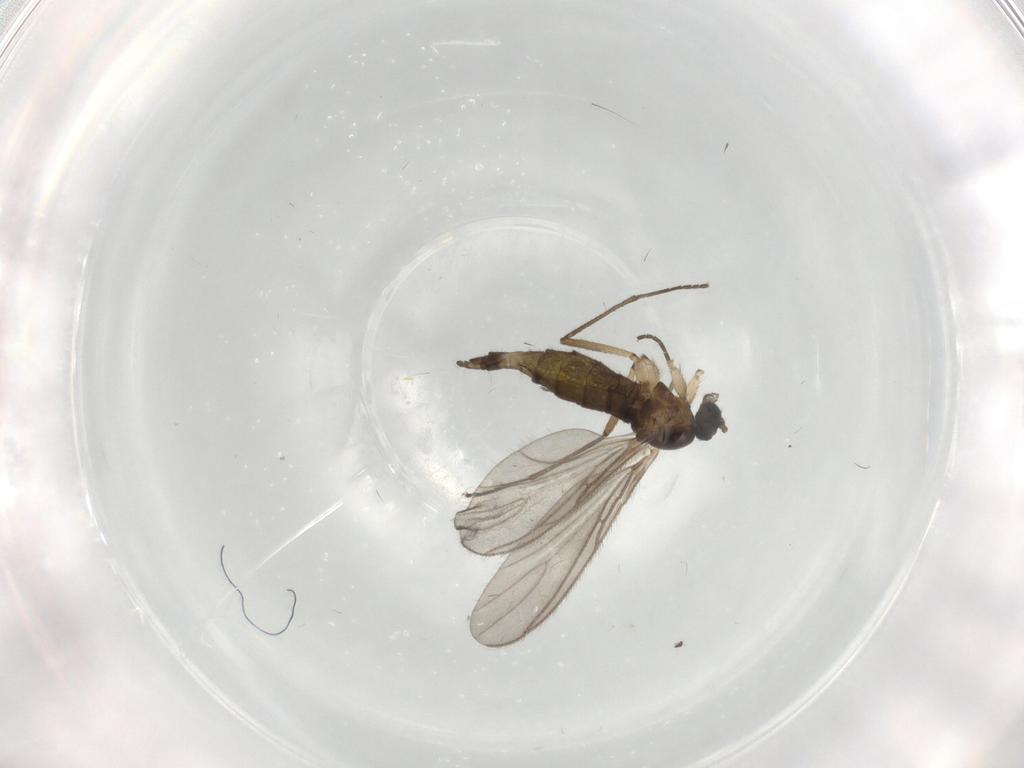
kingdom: Animalia
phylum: Arthropoda
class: Insecta
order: Diptera
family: Sciaridae
